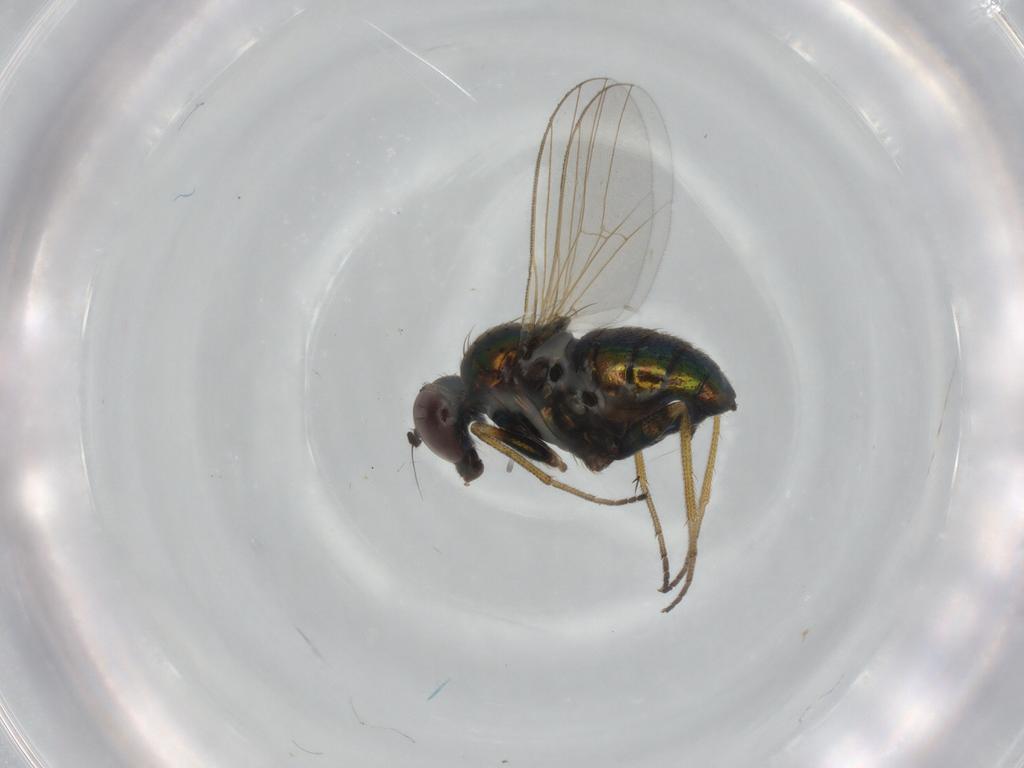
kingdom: Animalia
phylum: Arthropoda
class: Insecta
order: Diptera
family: Dolichopodidae
